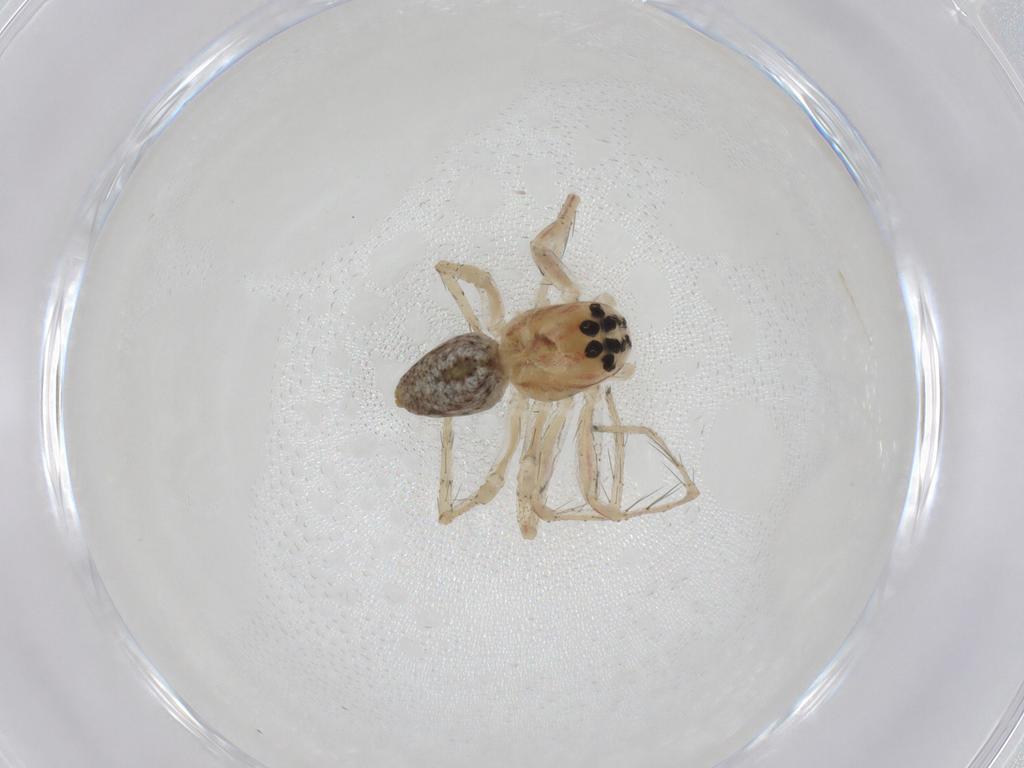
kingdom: Animalia
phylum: Arthropoda
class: Arachnida
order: Araneae
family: Oxyopidae
